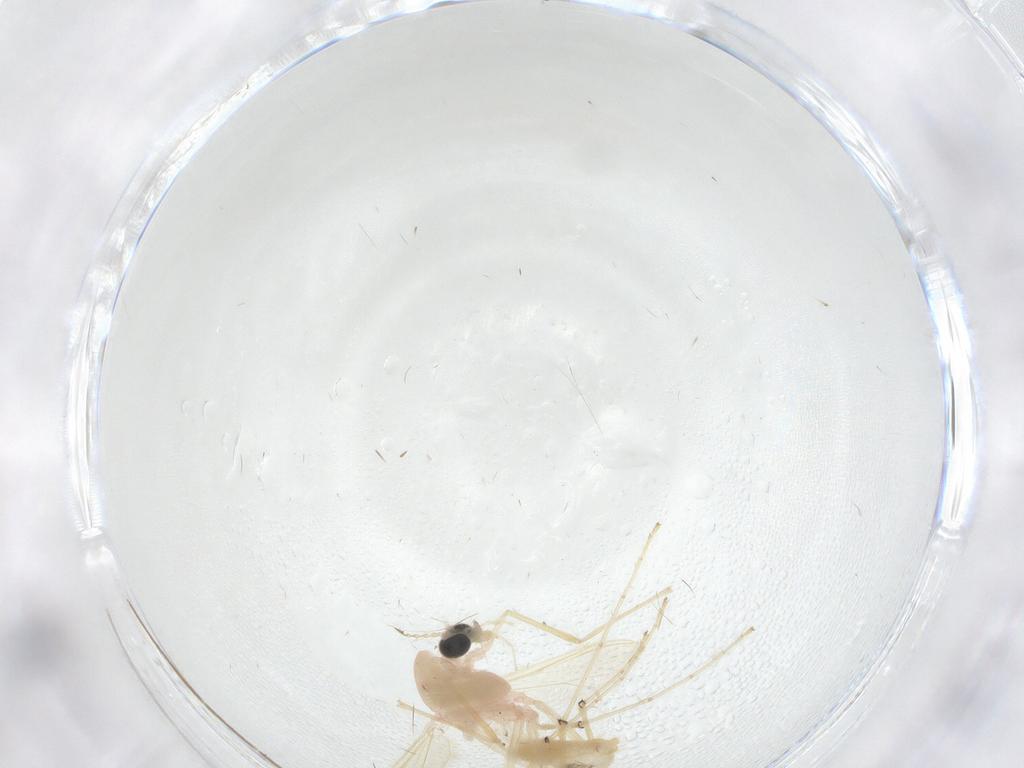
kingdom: Animalia
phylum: Arthropoda
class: Insecta
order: Diptera
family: Chironomidae
